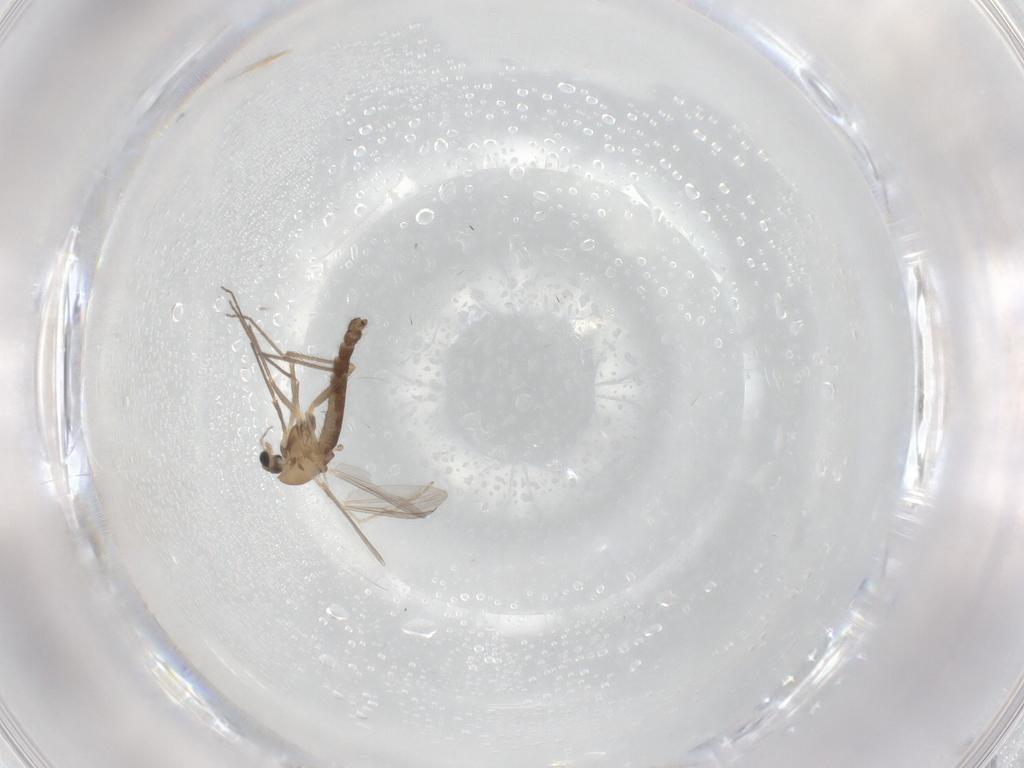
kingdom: Animalia
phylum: Arthropoda
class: Insecta
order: Diptera
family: Chironomidae
